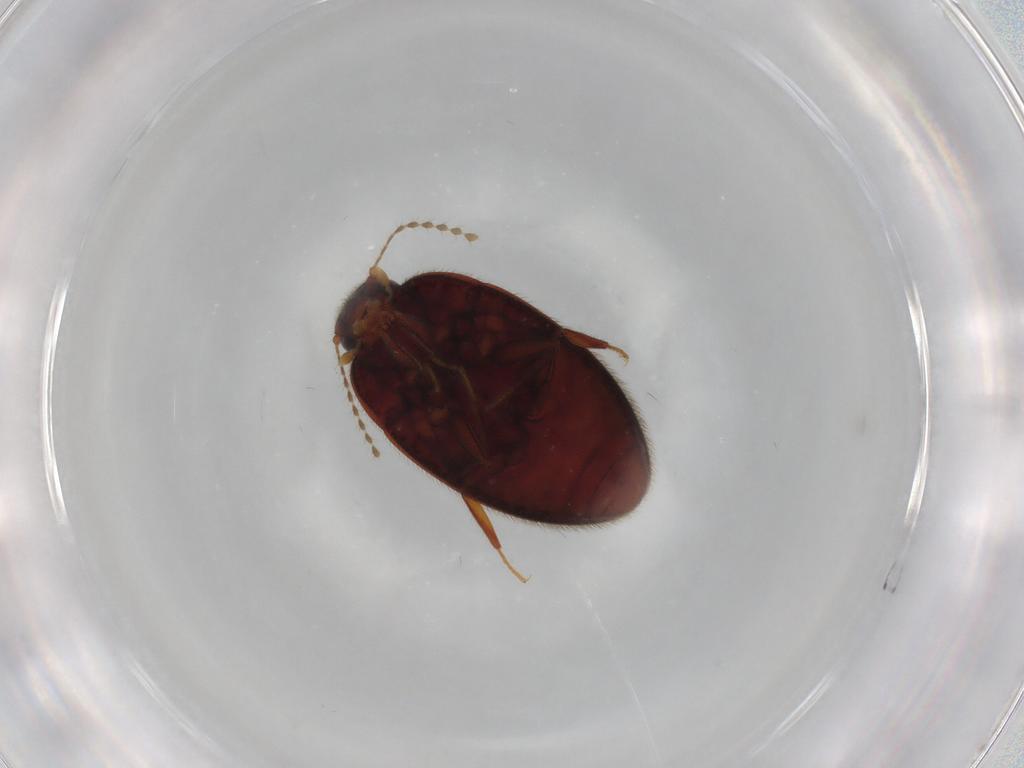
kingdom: Animalia
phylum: Arthropoda
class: Insecta
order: Coleoptera
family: Limnichidae
